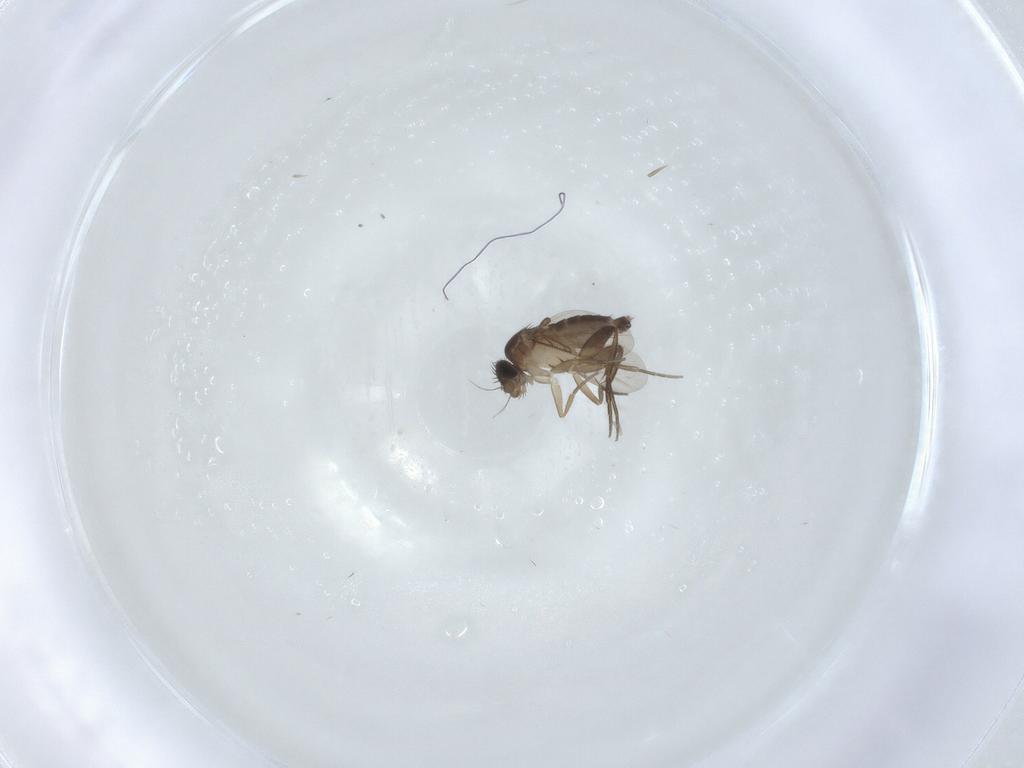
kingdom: Animalia
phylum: Arthropoda
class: Insecta
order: Diptera
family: Phoridae
